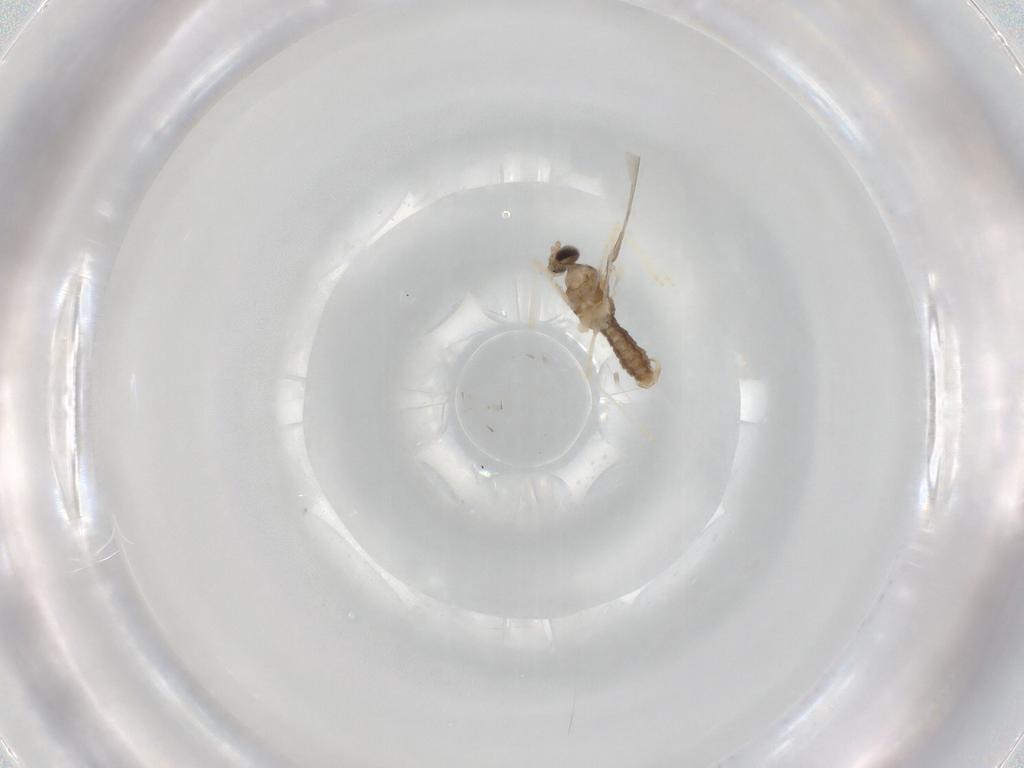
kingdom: Animalia
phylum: Arthropoda
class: Insecta
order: Diptera
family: Cecidomyiidae
